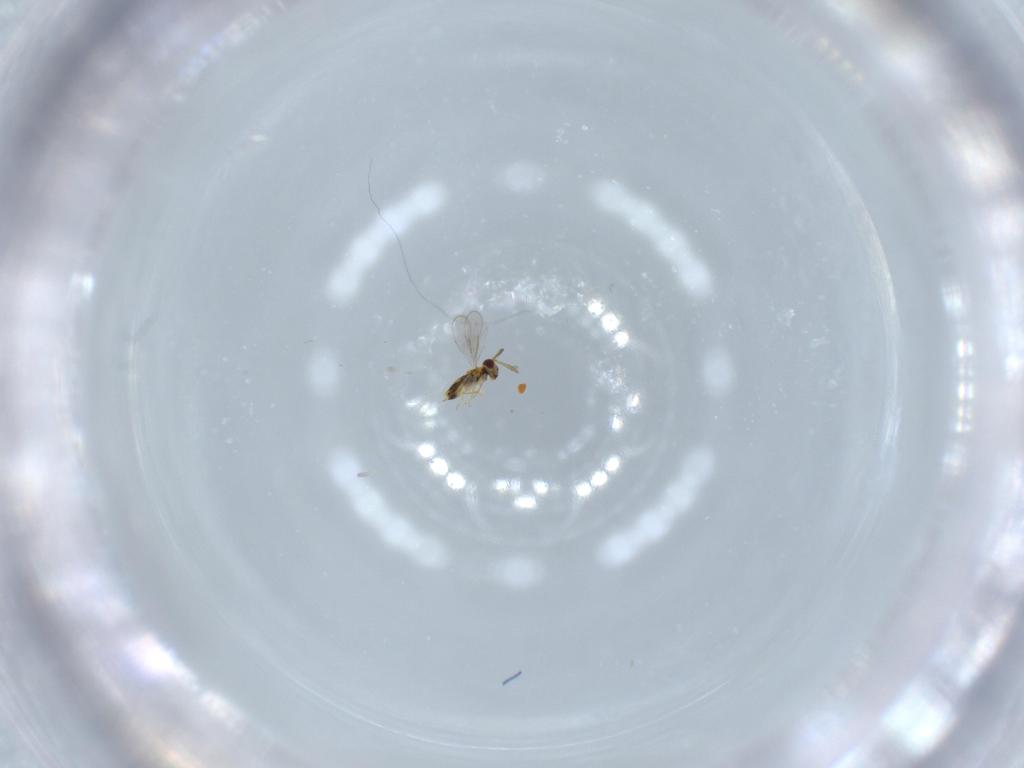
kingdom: Animalia
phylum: Arthropoda
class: Insecta
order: Hymenoptera
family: Aphelinidae
